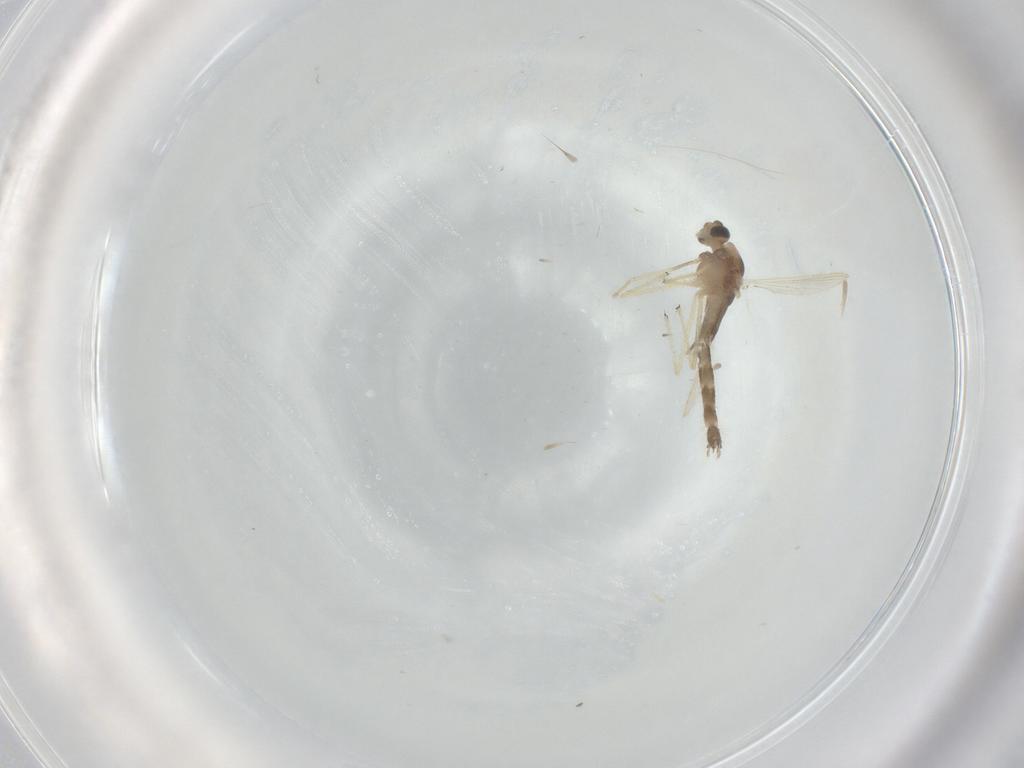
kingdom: Animalia
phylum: Arthropoda
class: Insecta
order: Diptera
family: Chironomidae
